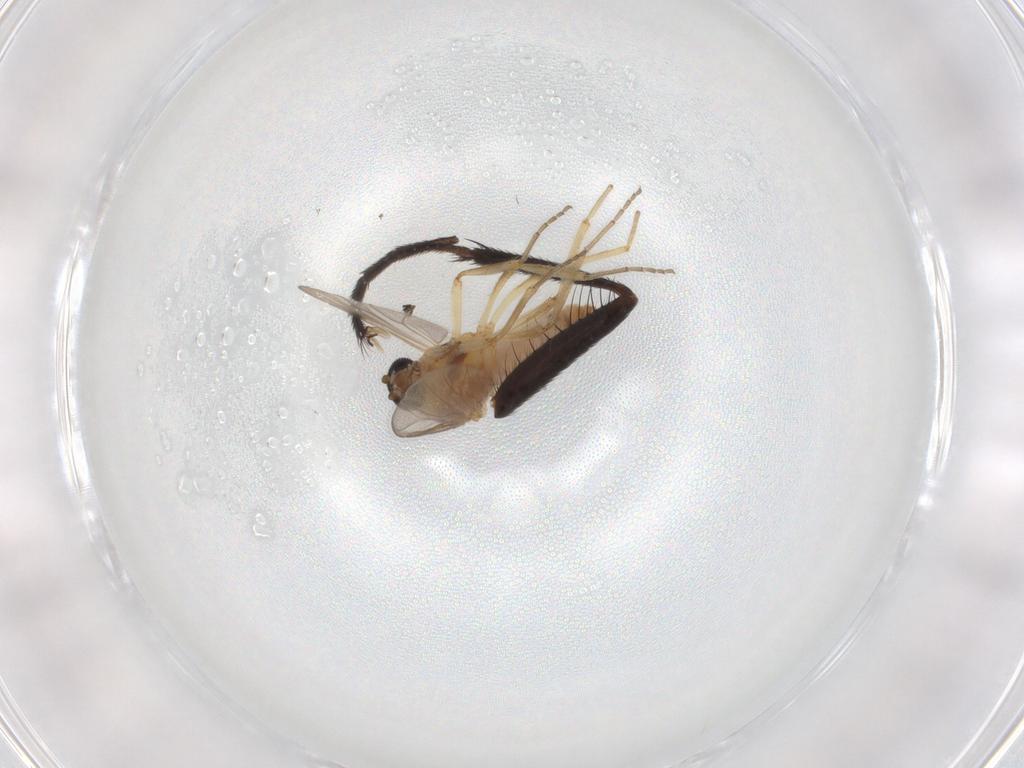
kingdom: Animalia
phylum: Arthropoda
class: Insecta
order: Diptera
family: Ceratopogonidae
